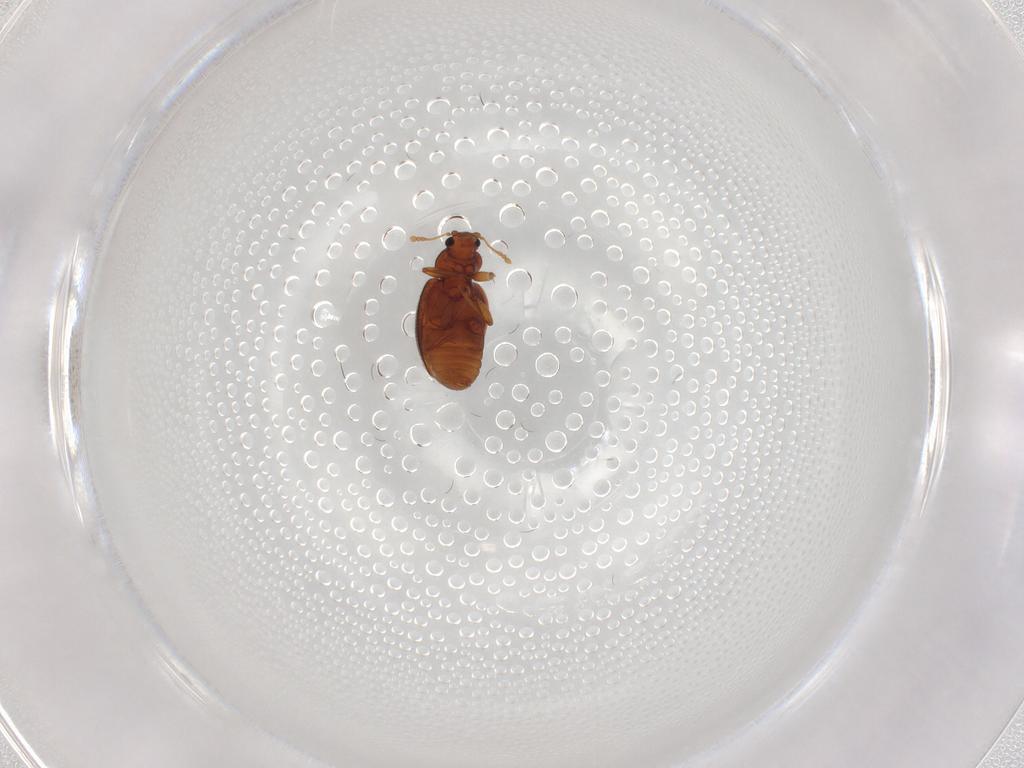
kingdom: Animalia
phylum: Arthropoda
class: Insecta
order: Coleoptera
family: Latridiidae
